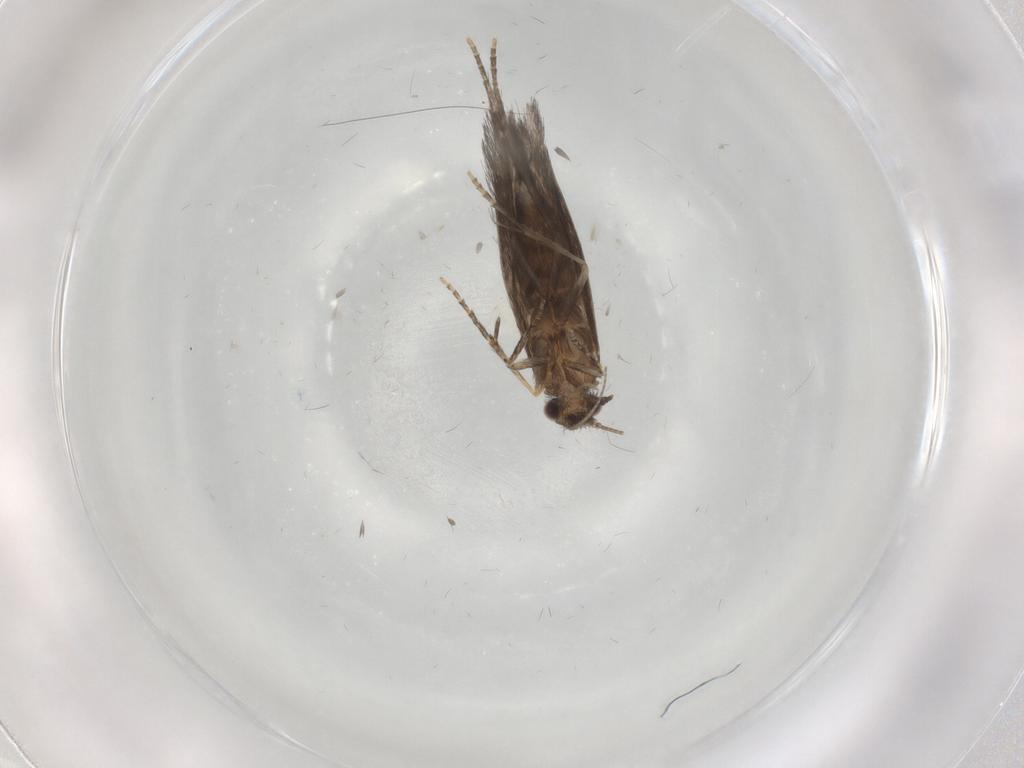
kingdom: Animalia
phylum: Arthropoda
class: Insecta
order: Trichoptera
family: Hydroptilidae
